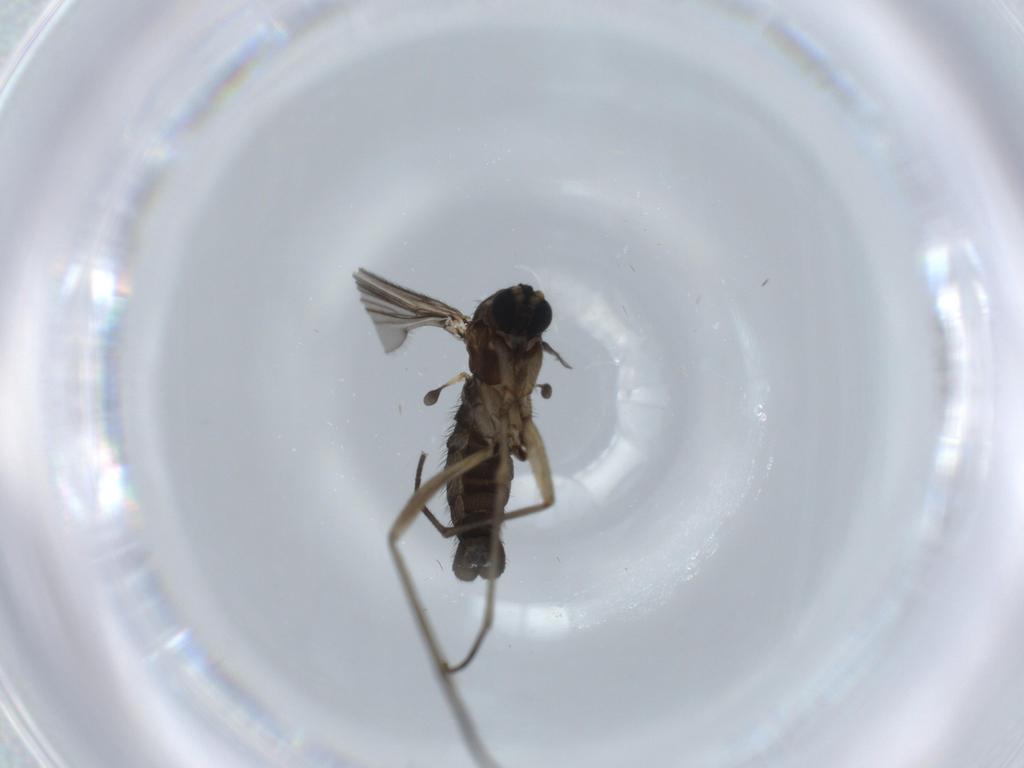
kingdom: Animalia
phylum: Arthropoda
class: Insecta
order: Diptera
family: Sciaridae
